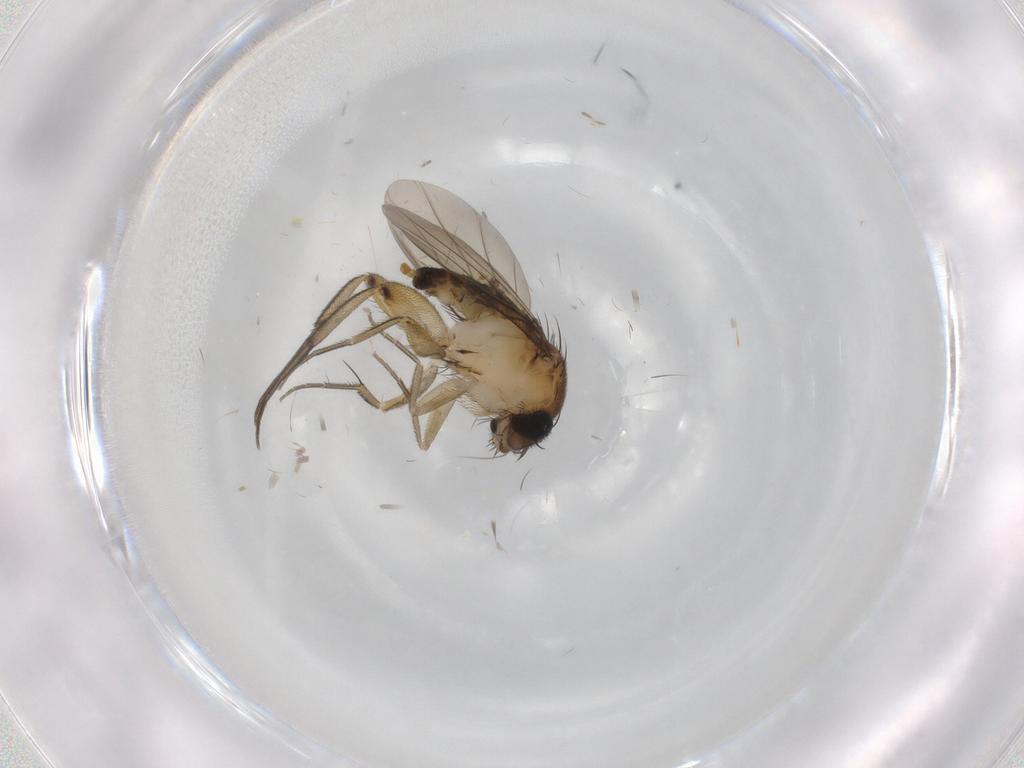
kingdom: Animalia
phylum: Arthropoda
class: Insecta
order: Diptera
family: Phoridae
